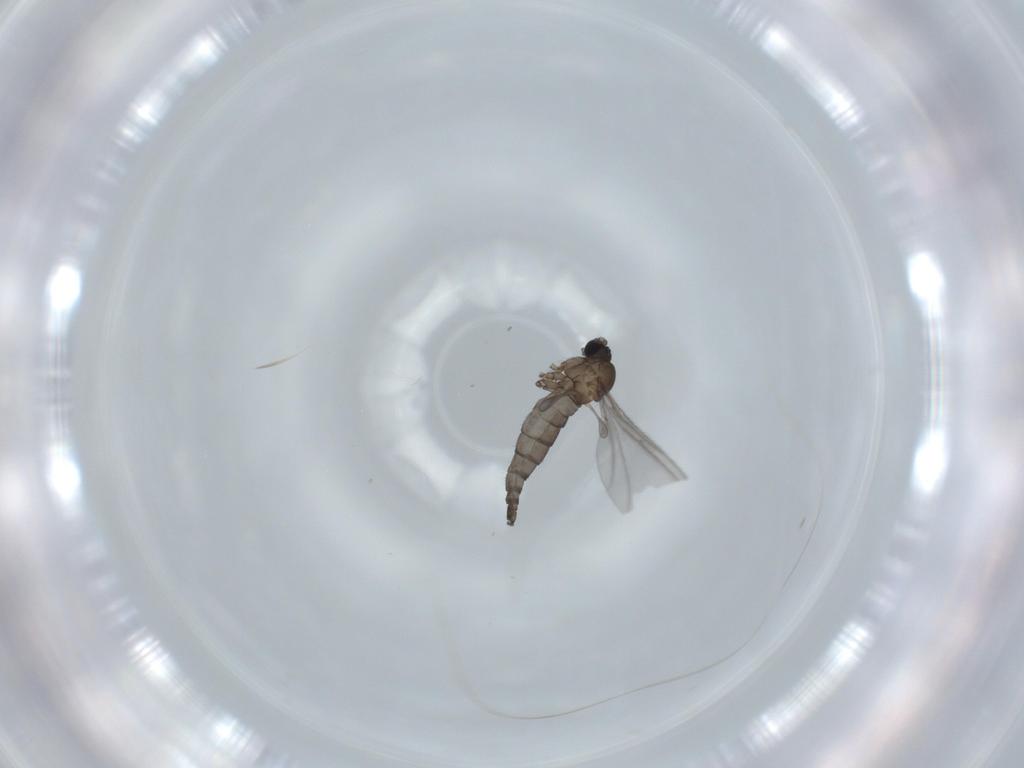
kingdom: Animalia
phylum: Arthropoda
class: Insecta
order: Diptera
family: Sciaridae
